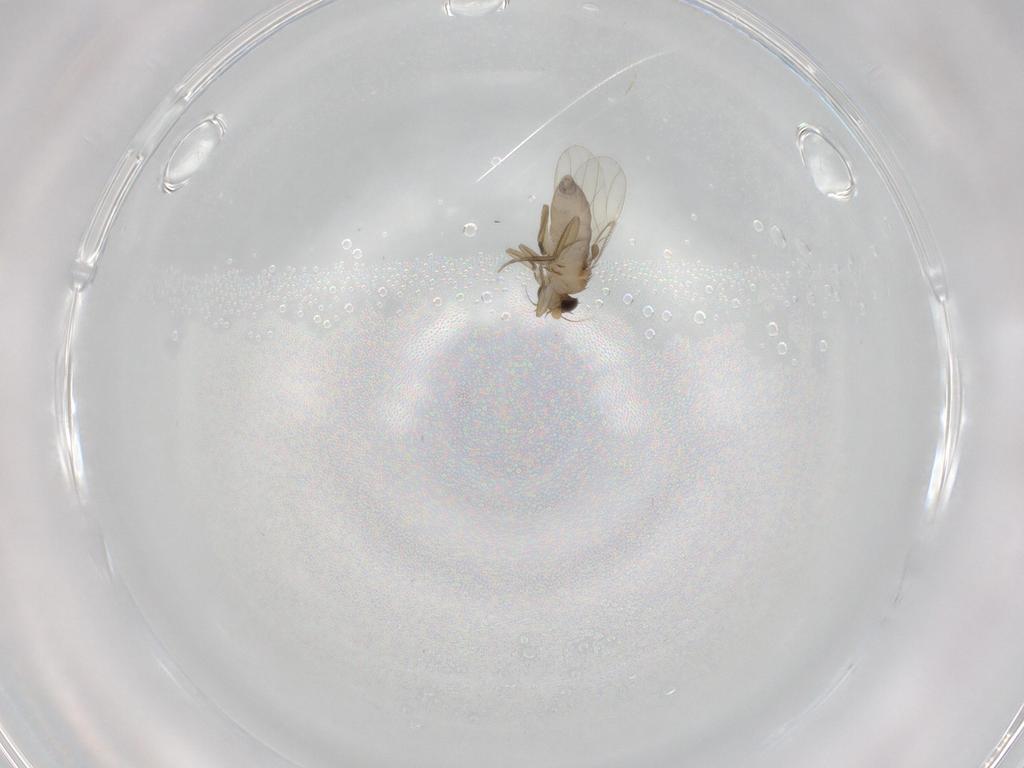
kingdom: Animalia
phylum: Arthropoda
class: Insecta
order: Diptera
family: Phoridae
